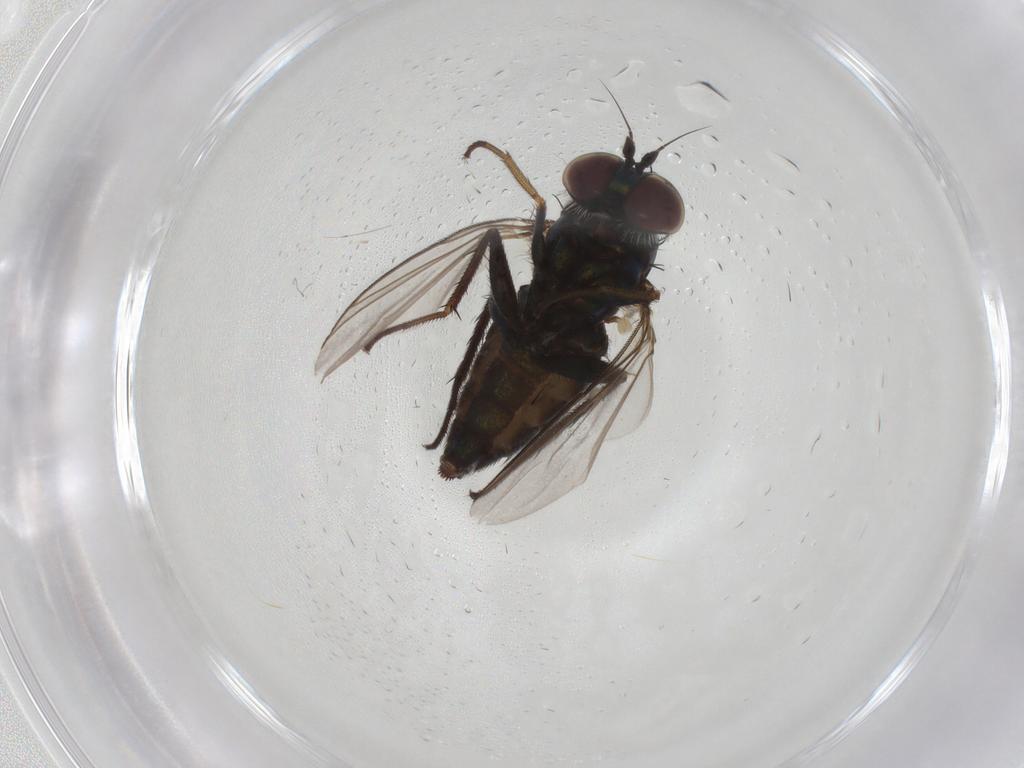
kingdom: Animalia
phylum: Arthropoda
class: Insecta
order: Diptera
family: Dolichopodidae
